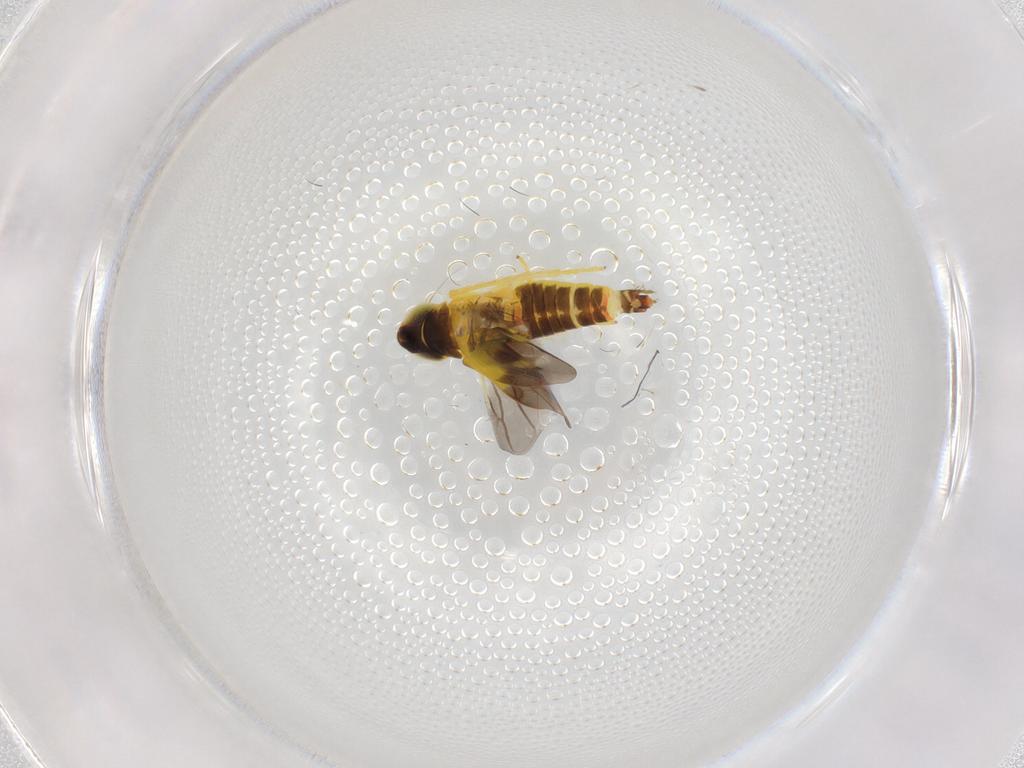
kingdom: Animalia
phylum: Arthropoda
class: Insecta
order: Hemiptera
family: Cicadellidae
